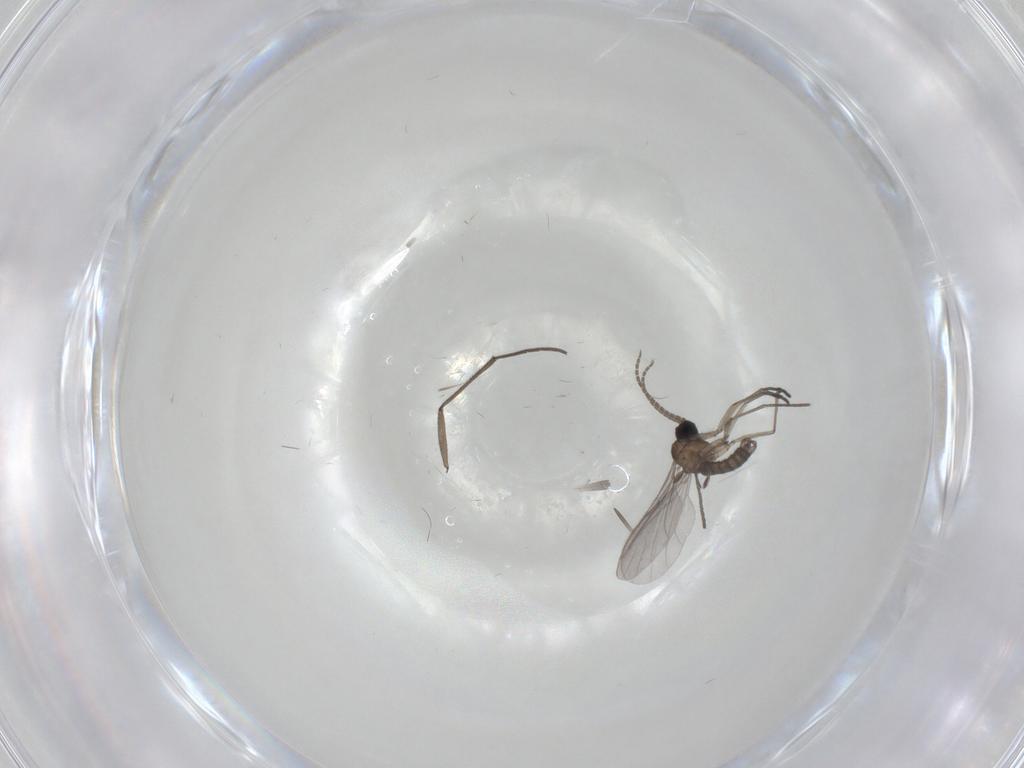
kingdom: Animalia
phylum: Arthropoda
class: Insecta
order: Diptera
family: Sciaridae
